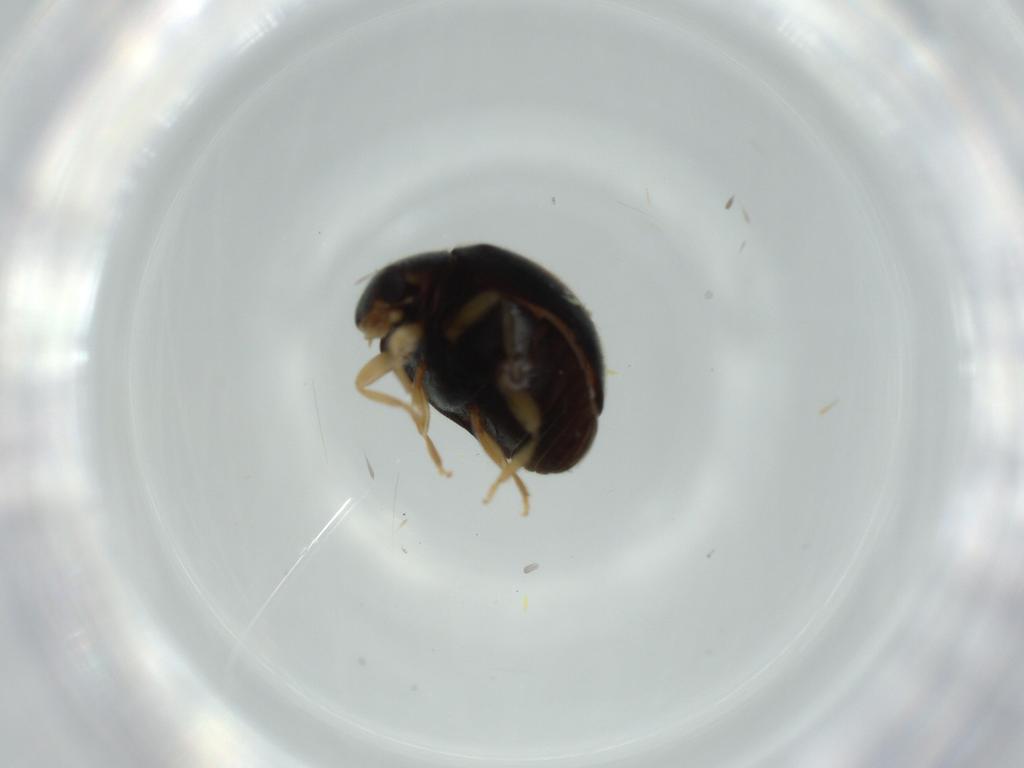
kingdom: Animalia
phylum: Arthropoda
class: Insecta
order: Coleoptera
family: Coccinellidae
